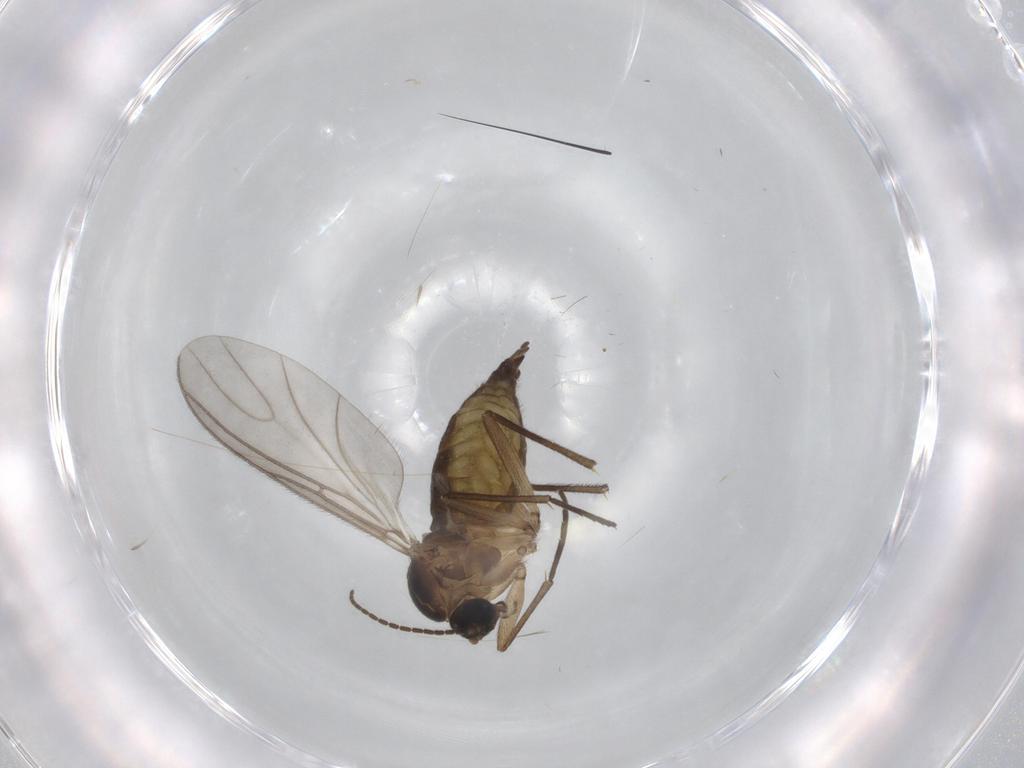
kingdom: Animalia
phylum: Arthropoda
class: Insecta
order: Diptera
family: Sciaridae
